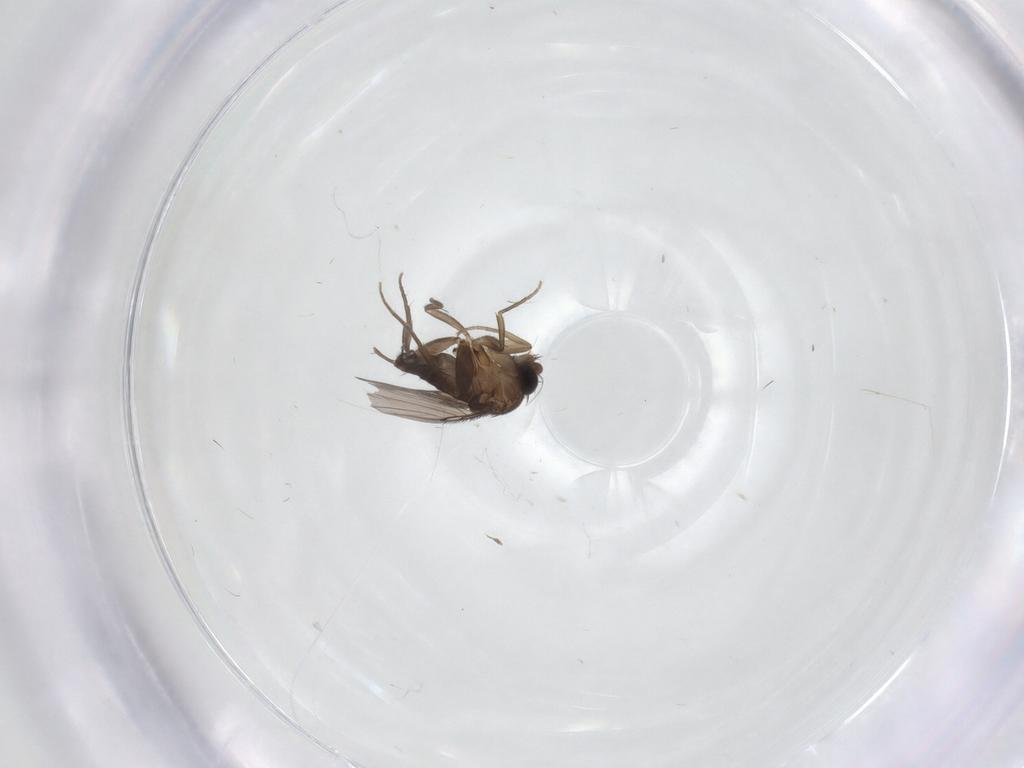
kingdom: Animalia
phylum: Arthropoda
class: Insecta
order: Diptera
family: Phoridae
